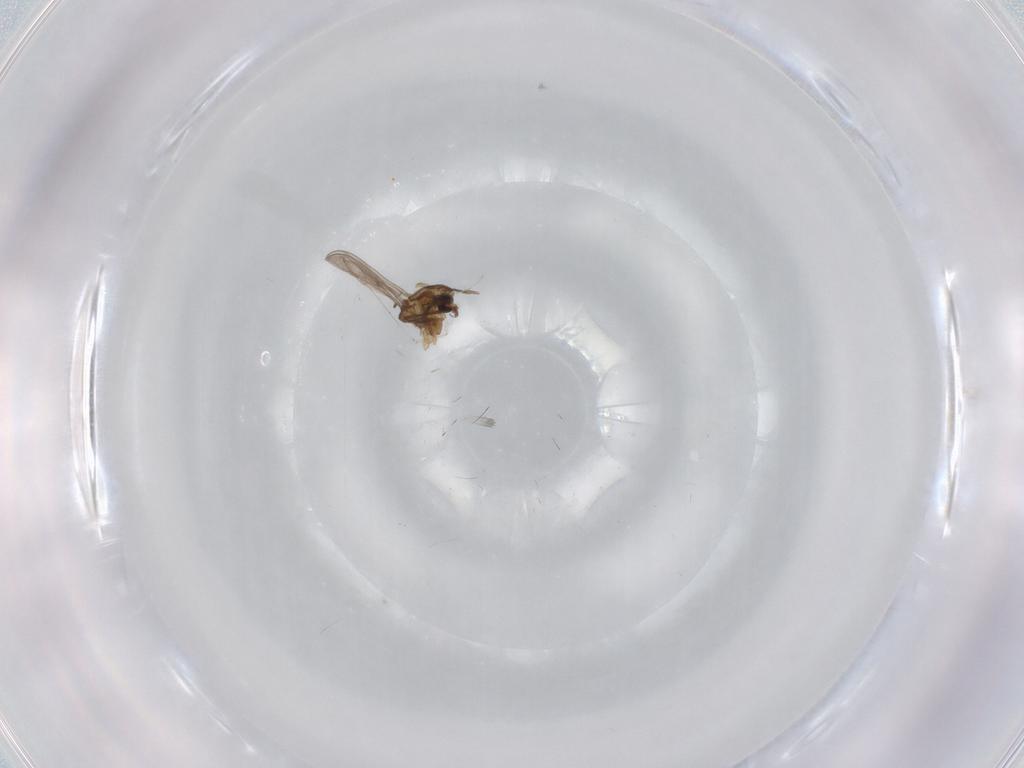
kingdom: Animalia
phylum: Arthropoda
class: Insecta
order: Diptera
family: Chironomidae
